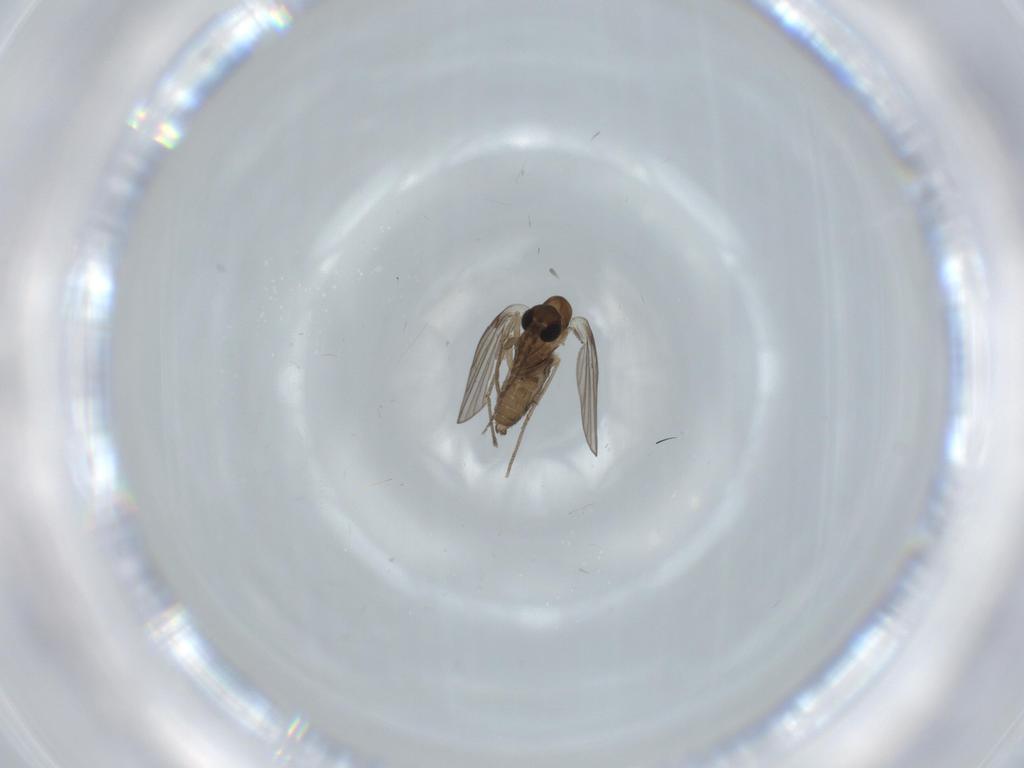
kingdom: Animalia
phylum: Arthropoda
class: Insecta
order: Diptera
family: Psychodidae
